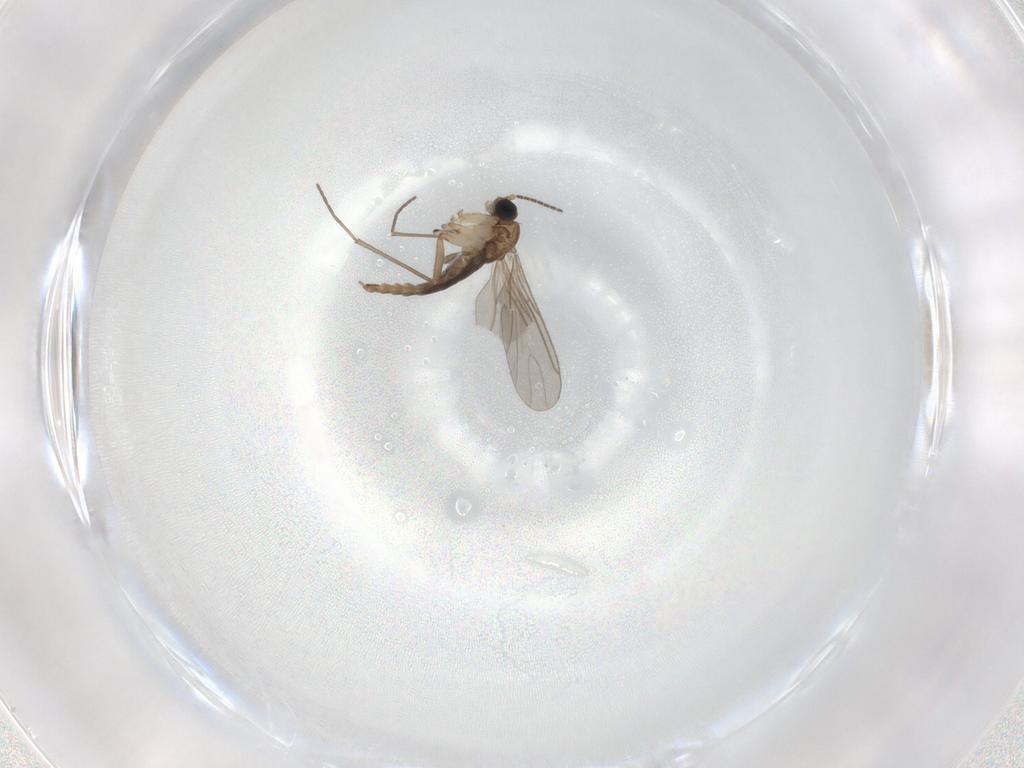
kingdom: Animalia
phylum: Arthropoda
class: Insecta
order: Diptera
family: Sciaridae
